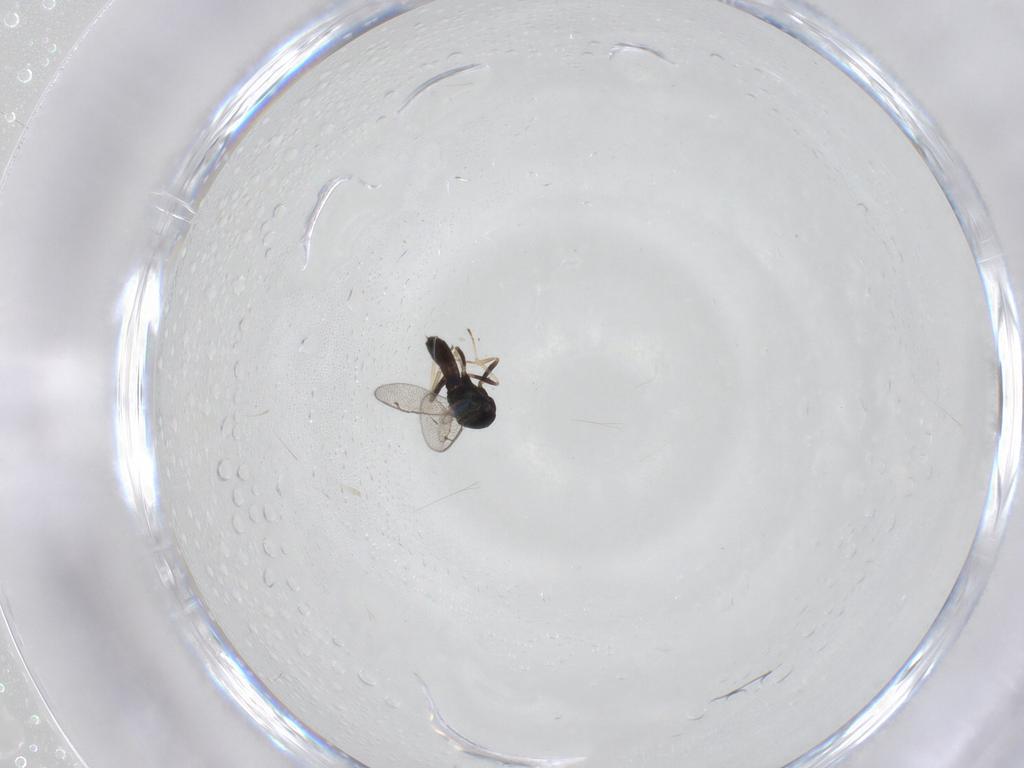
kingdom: Animalia
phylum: Arthropoda
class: Insecta
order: Hymenoptera
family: Pteromalidae
